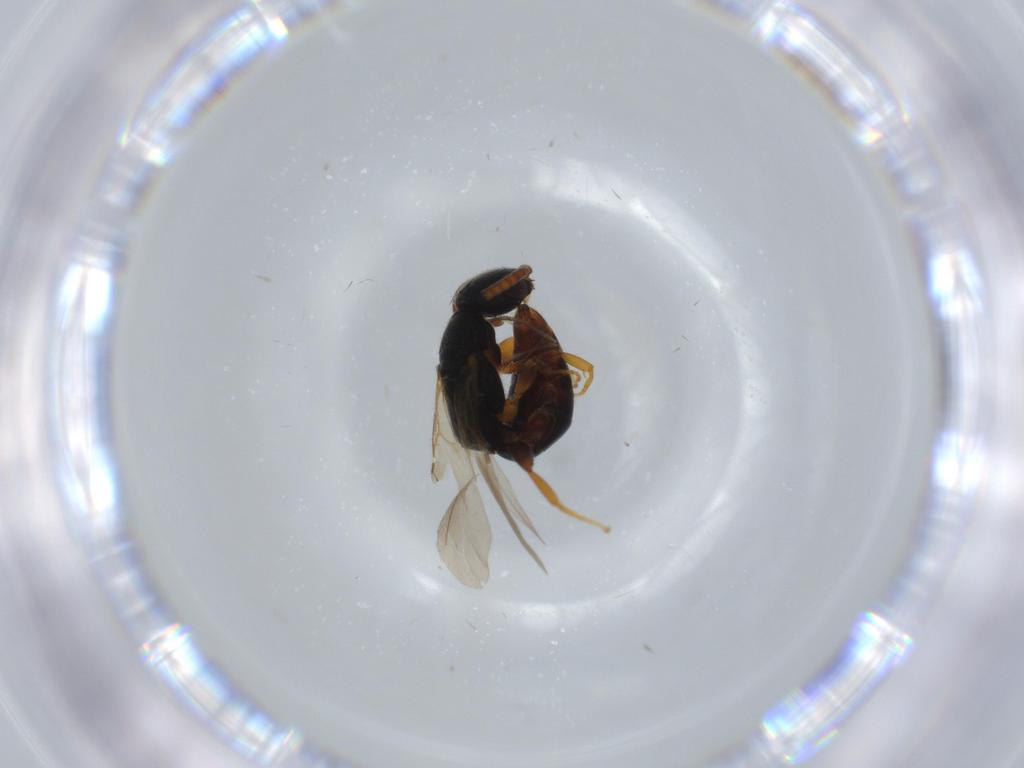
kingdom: Animalia
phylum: Arthropoda
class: Insecta
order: Hymenoptera
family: Bethylidae
